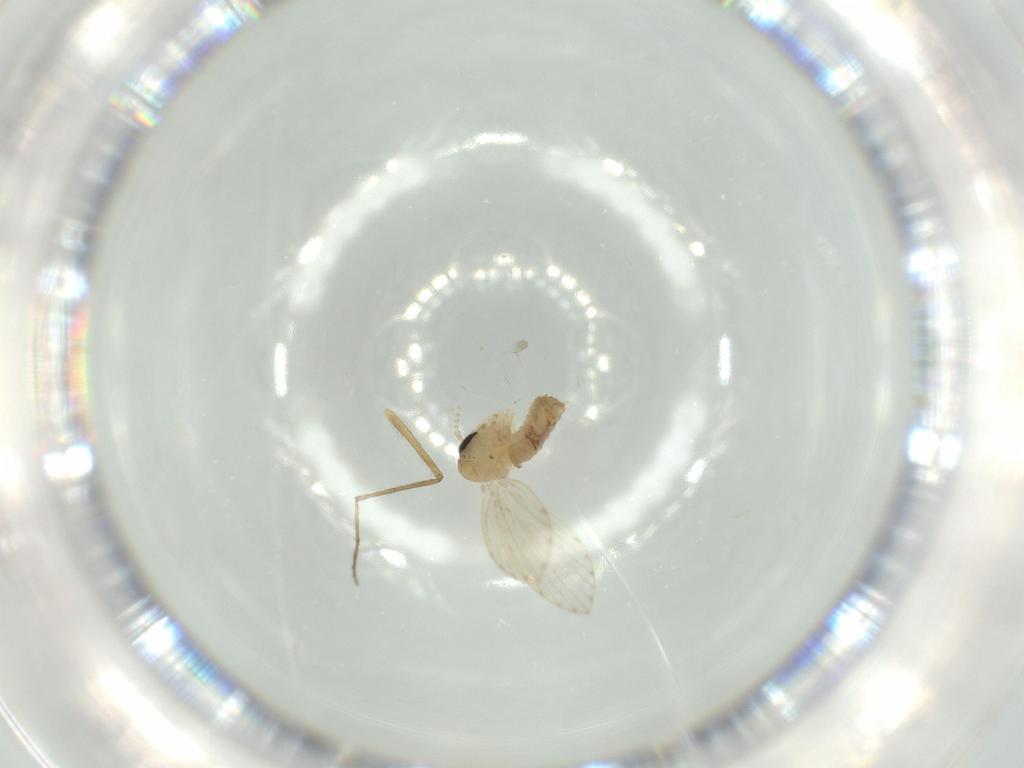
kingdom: Animalia
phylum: Arthropoda
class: Insecta
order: Diptera
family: Psychodidae
